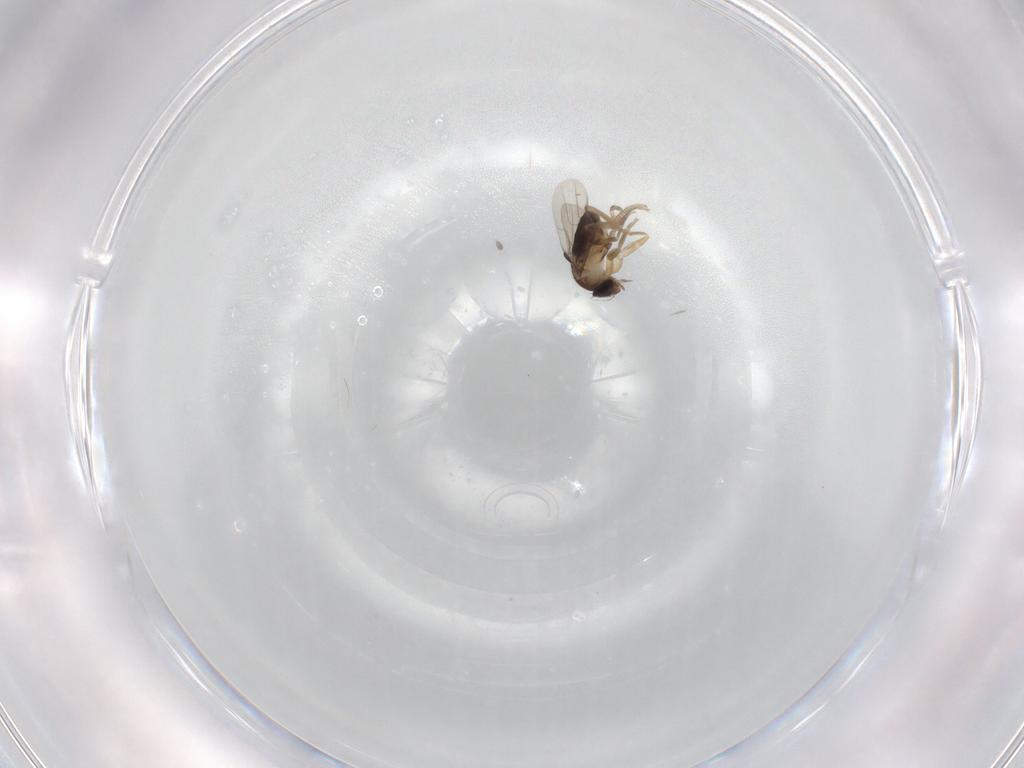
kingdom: Animalia
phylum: Arthropoda
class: Insecta
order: Diptera
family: Phoridae
